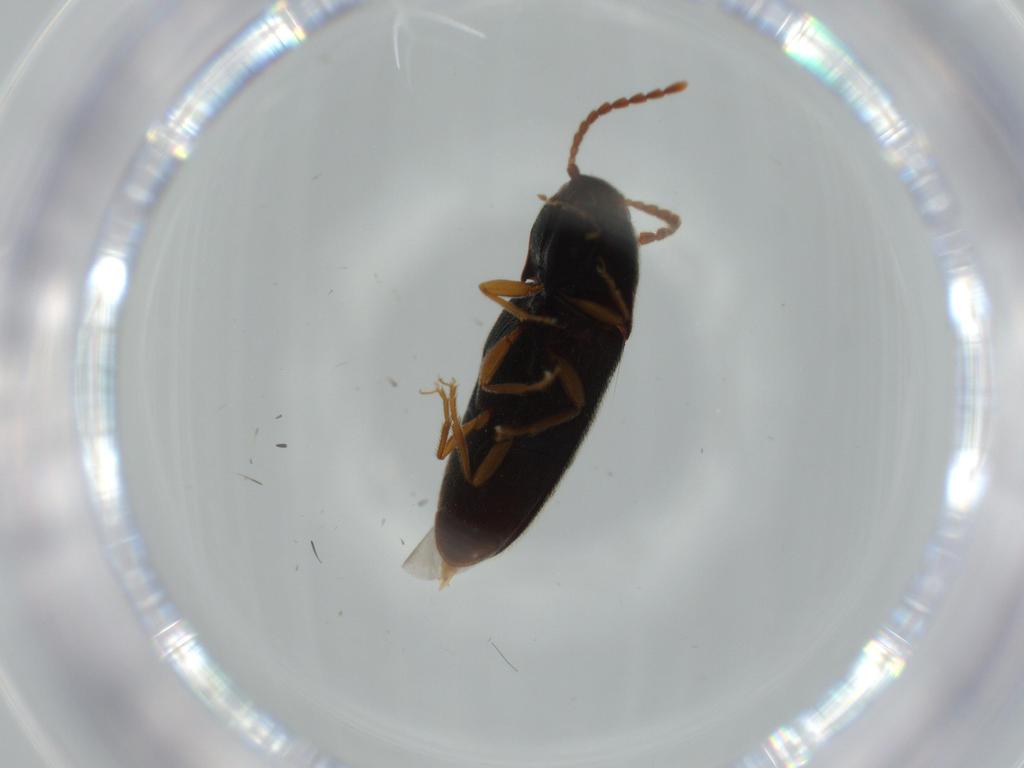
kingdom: Animalia
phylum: Arthropoda
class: Insecta
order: Coleoptera
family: Elateridae
